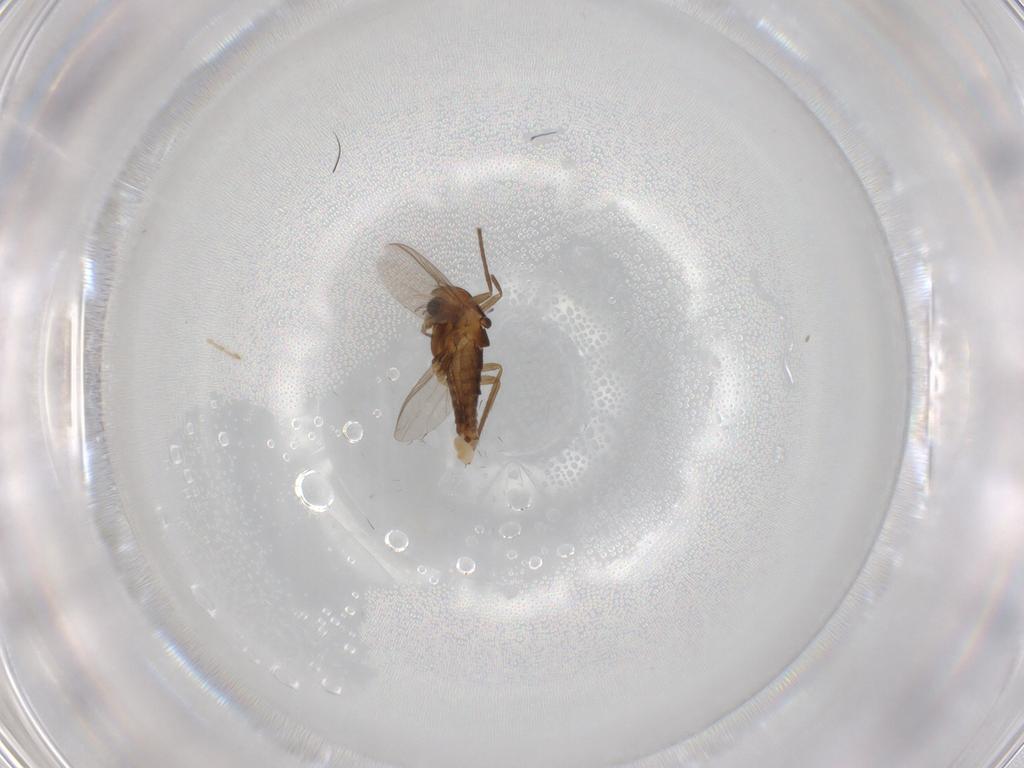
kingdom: Animalia
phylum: Arthropoda
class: Insecta
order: Diptera
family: Chironomidae
